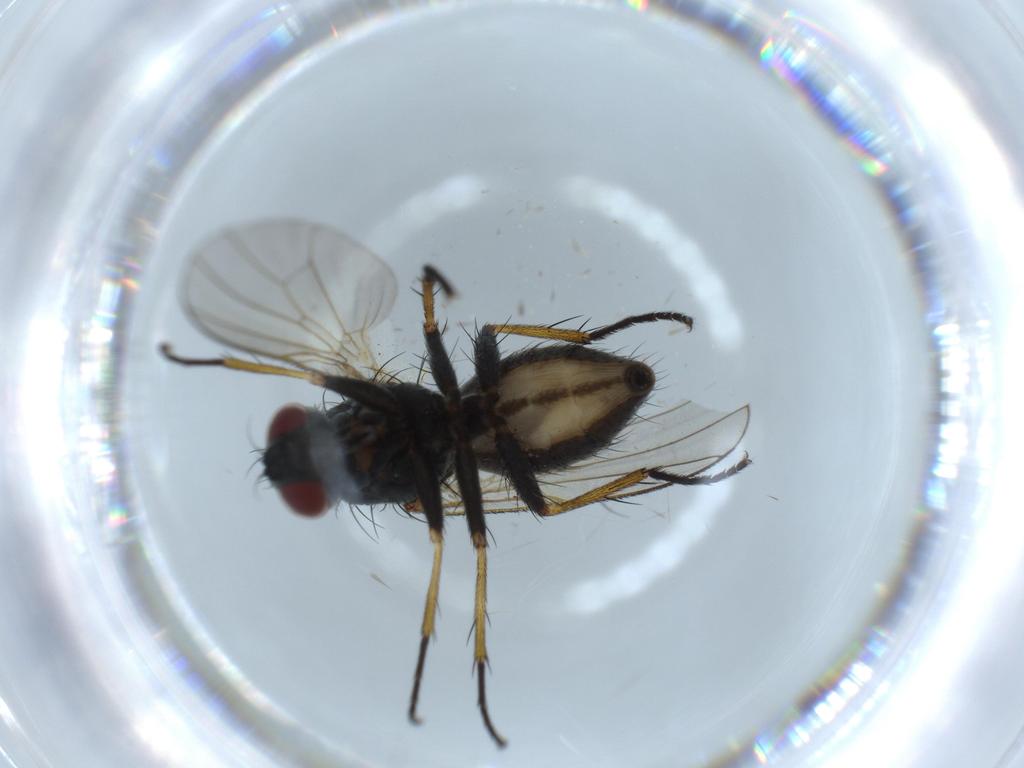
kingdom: Animalia
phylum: Arthropoda
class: Insecta
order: Diptera
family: Muscidae
